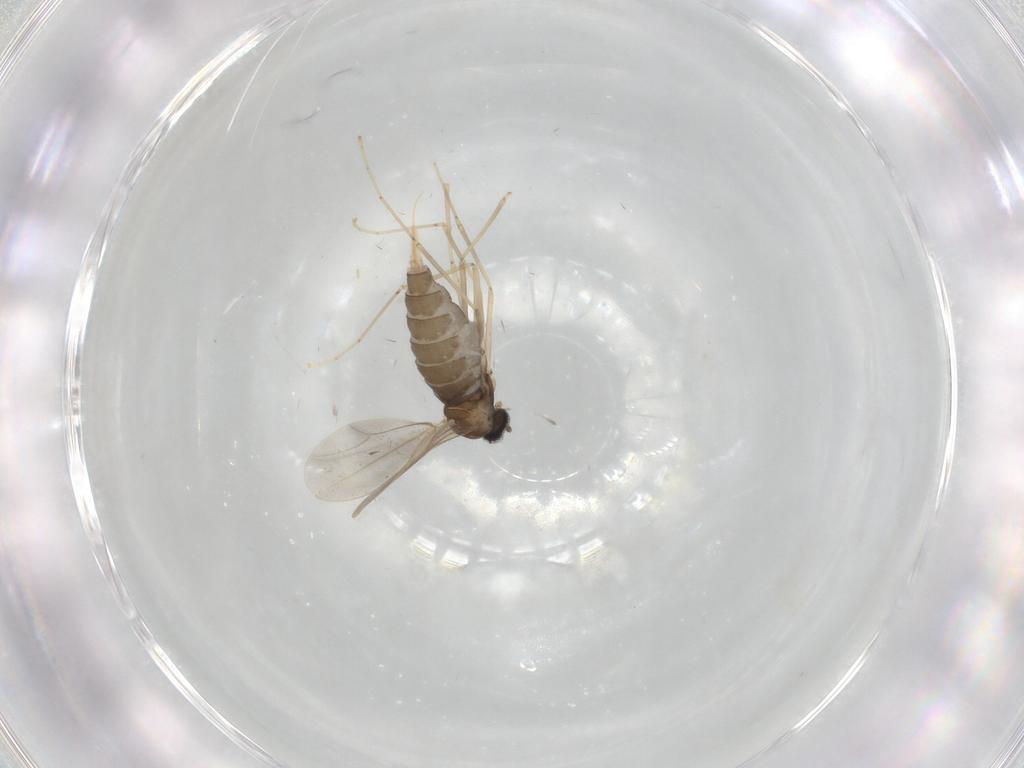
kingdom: Animalia
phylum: Arthropoda
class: Insecta
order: Diptera
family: Cecidomyiidae
